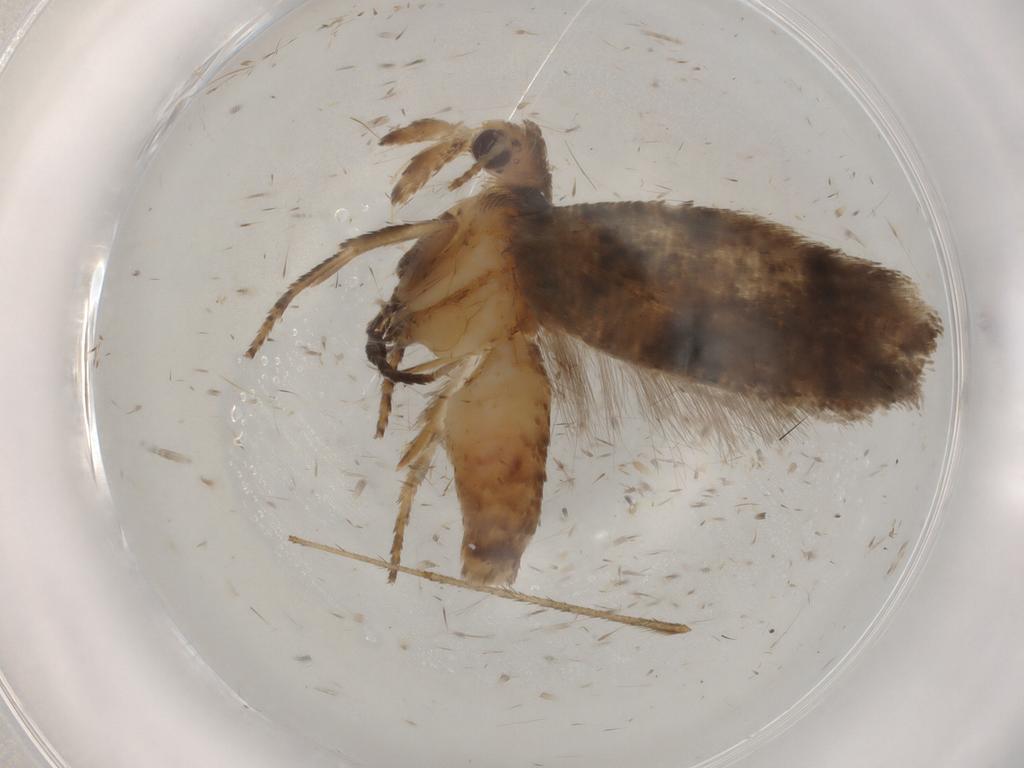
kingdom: Animalia
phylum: Arthropoda
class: Insecta
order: Lepidoptera
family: Ypsolophidae
